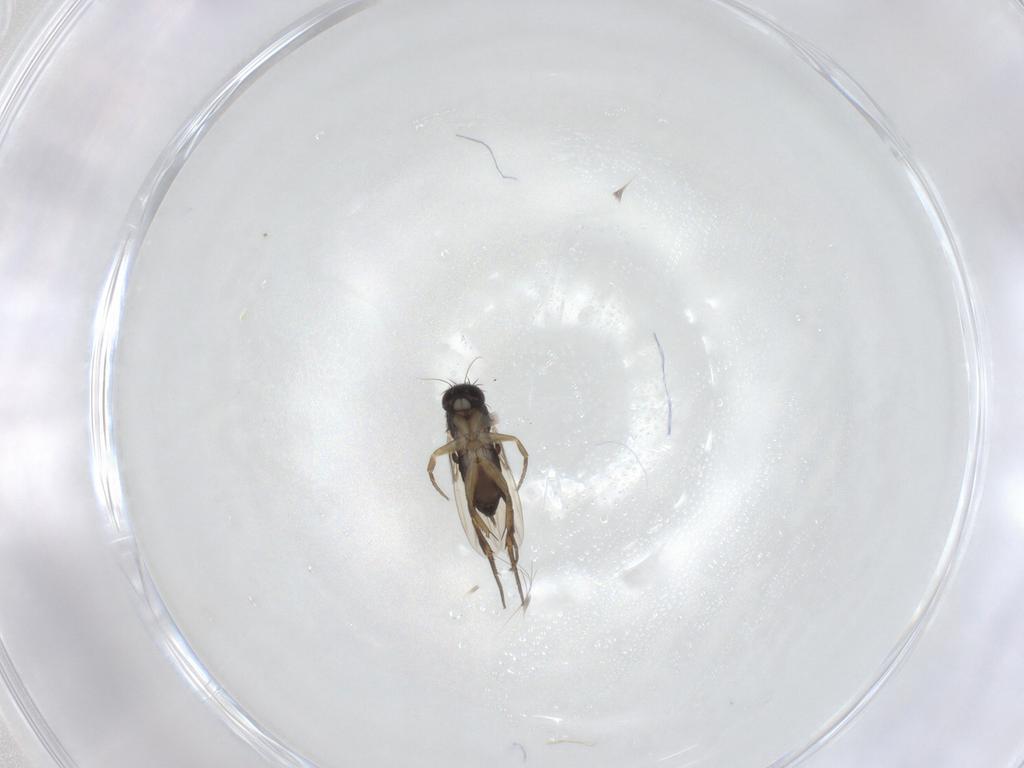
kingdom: Animalia
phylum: Arthropoda
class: Insecta
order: Diptera
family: Phoridae
